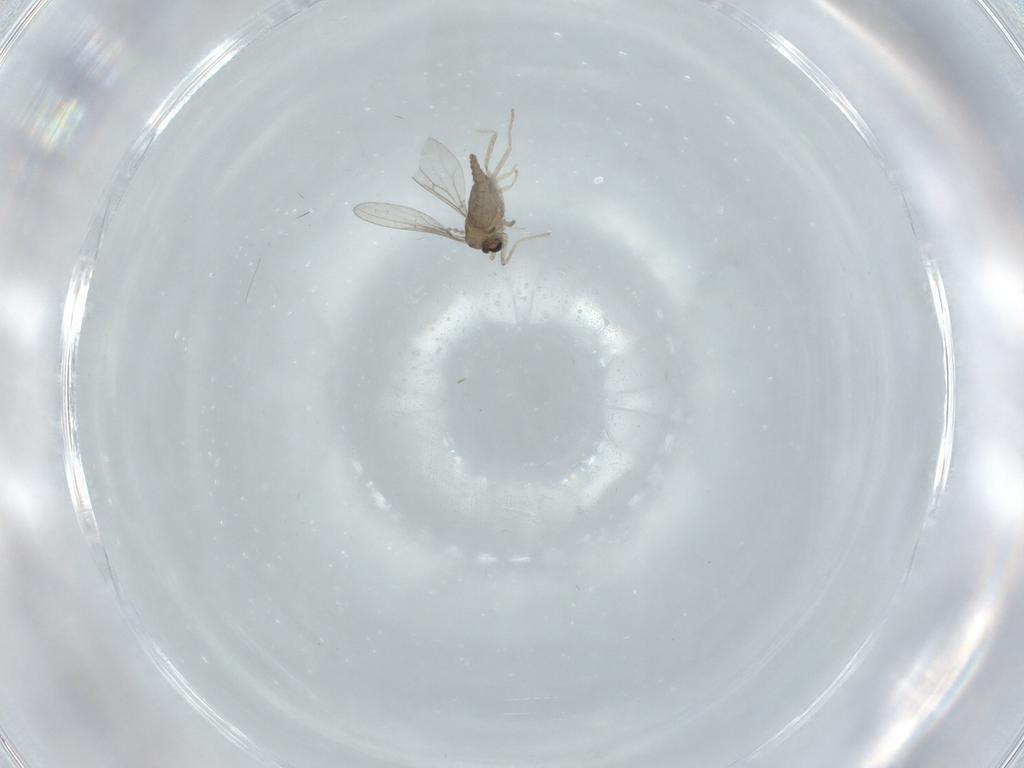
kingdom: Animalia
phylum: Arthropoda
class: Insecta
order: Diptera
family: Cecidomyiidae
